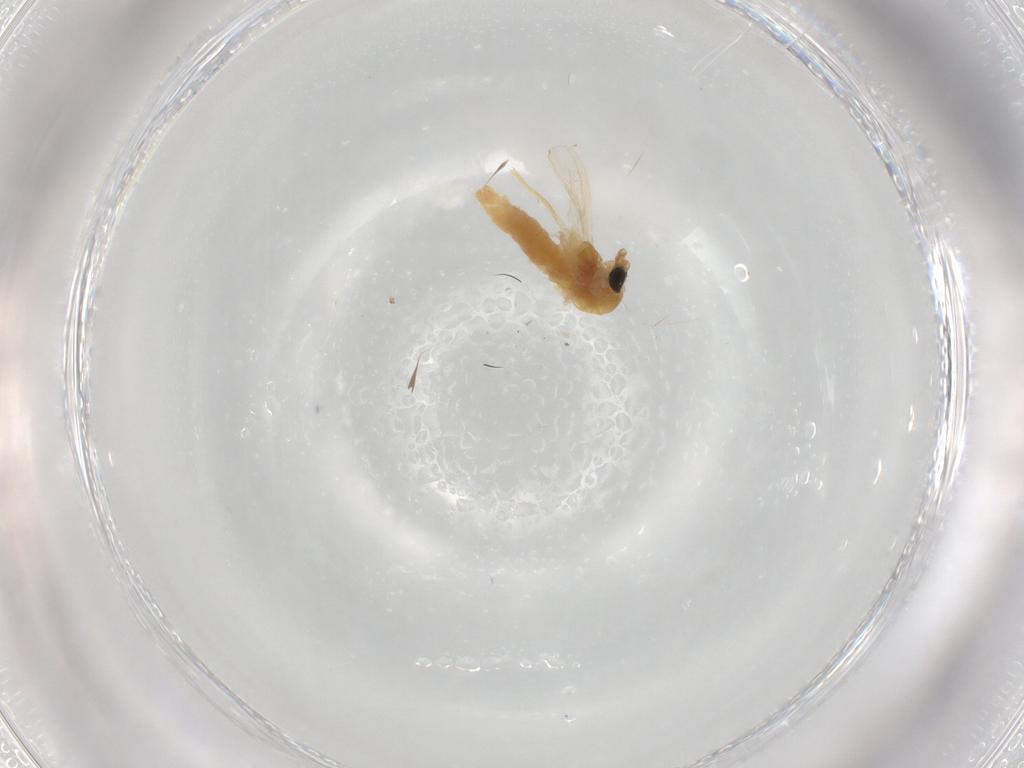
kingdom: Animalia
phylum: Arthropoda
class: Insecta
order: Diptera
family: Chironomidae
